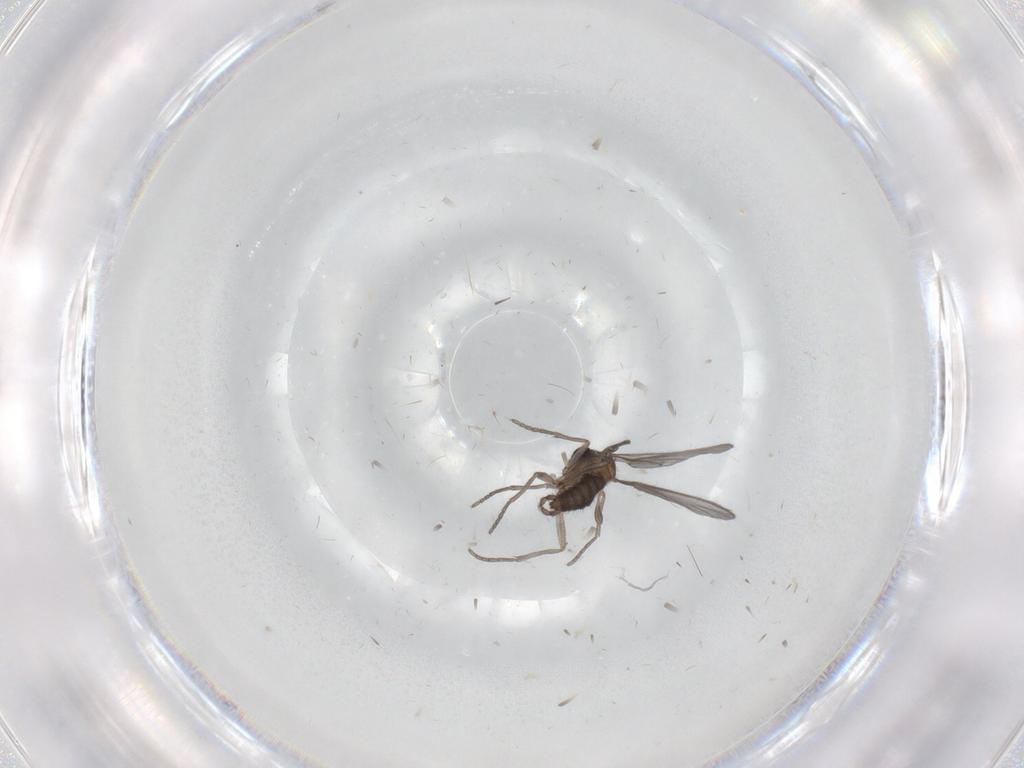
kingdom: Animalia
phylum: Arthropoda
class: Insecta
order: Diptera
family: Sciaridae
